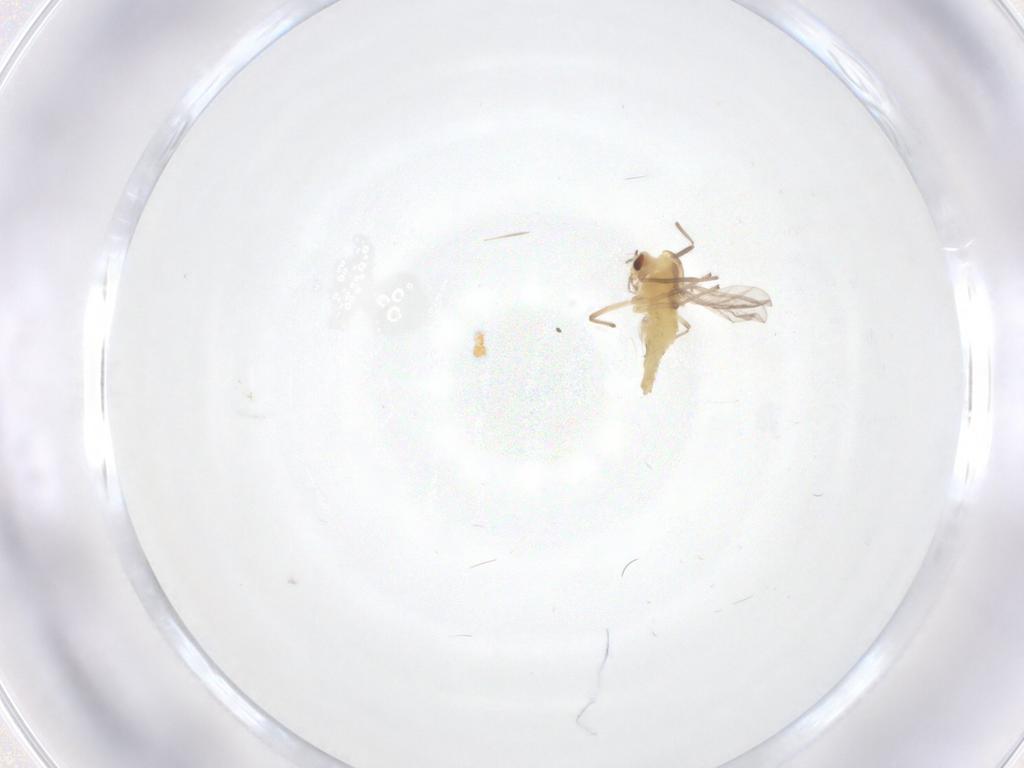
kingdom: Animalia
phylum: Arthropoda
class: Insecta
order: Diptera
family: Chironomidae
